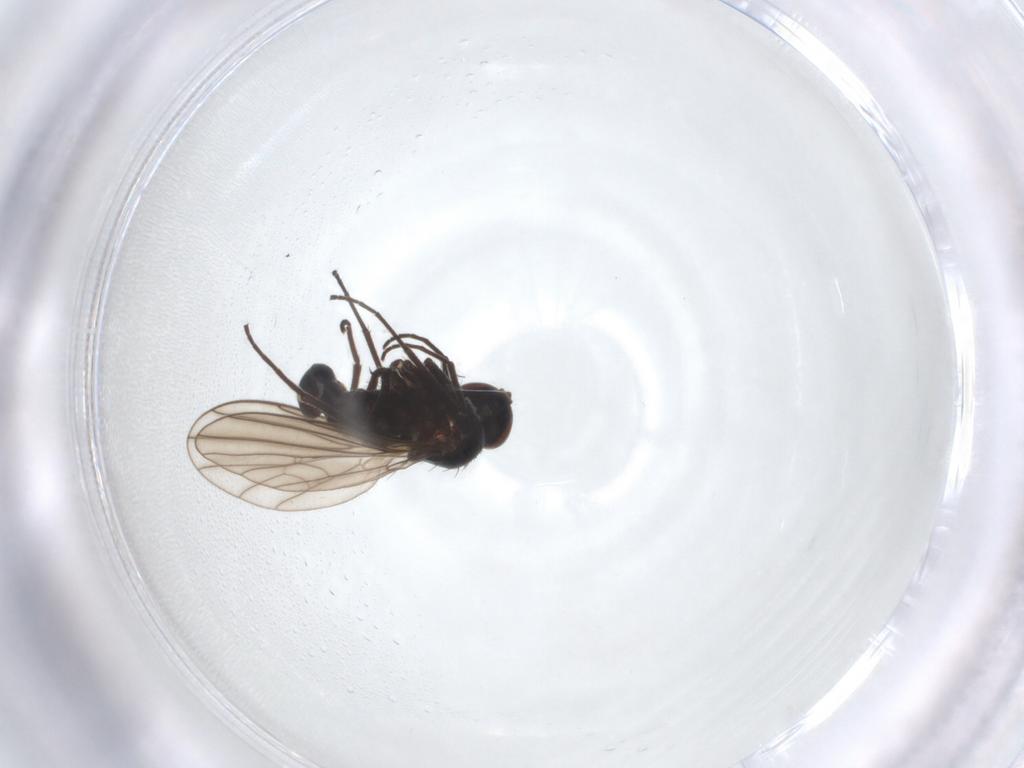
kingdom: Animalia
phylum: Arthropoda
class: Insecta
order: Diptera
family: Dolichopodidae
